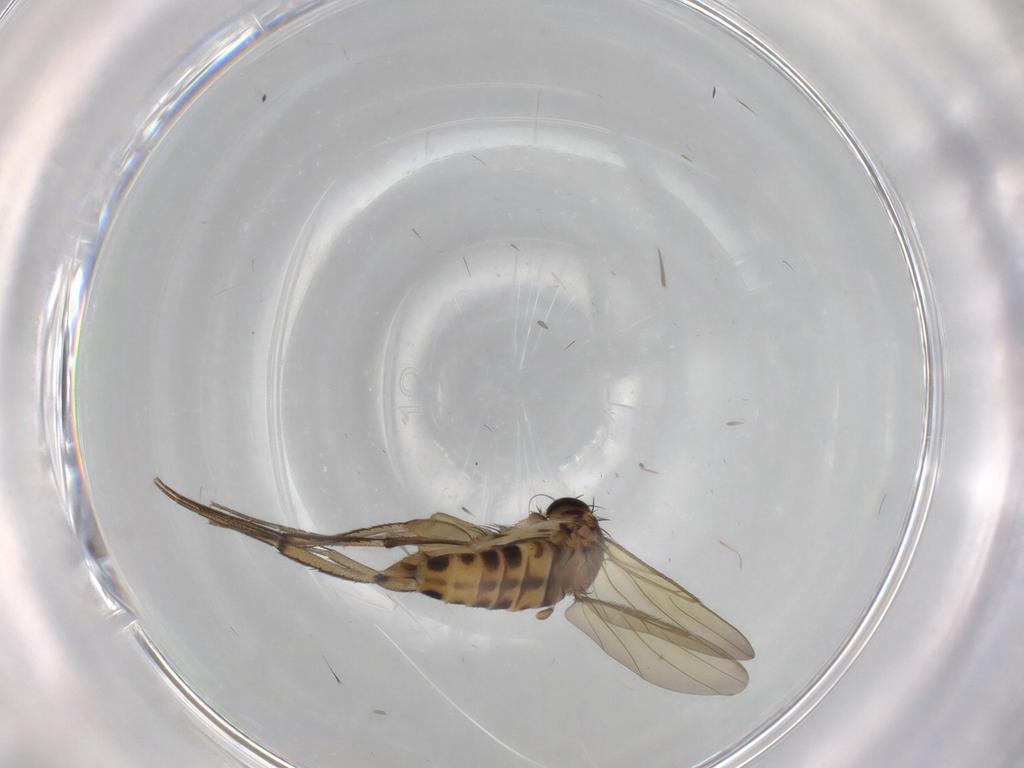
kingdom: Animalia
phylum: Arthropoda
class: Insecta
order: Diptera
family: Phoridae
